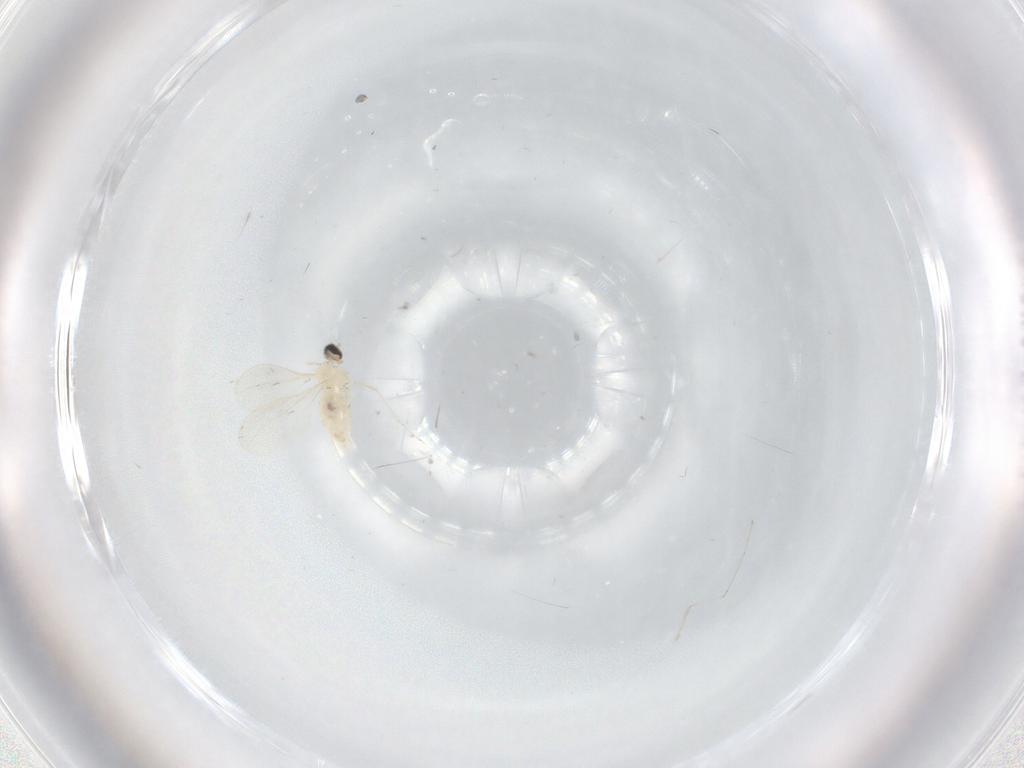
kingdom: Animalia
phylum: Arthropoda
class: Insecta
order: Diptera
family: Cecidomyiidae
